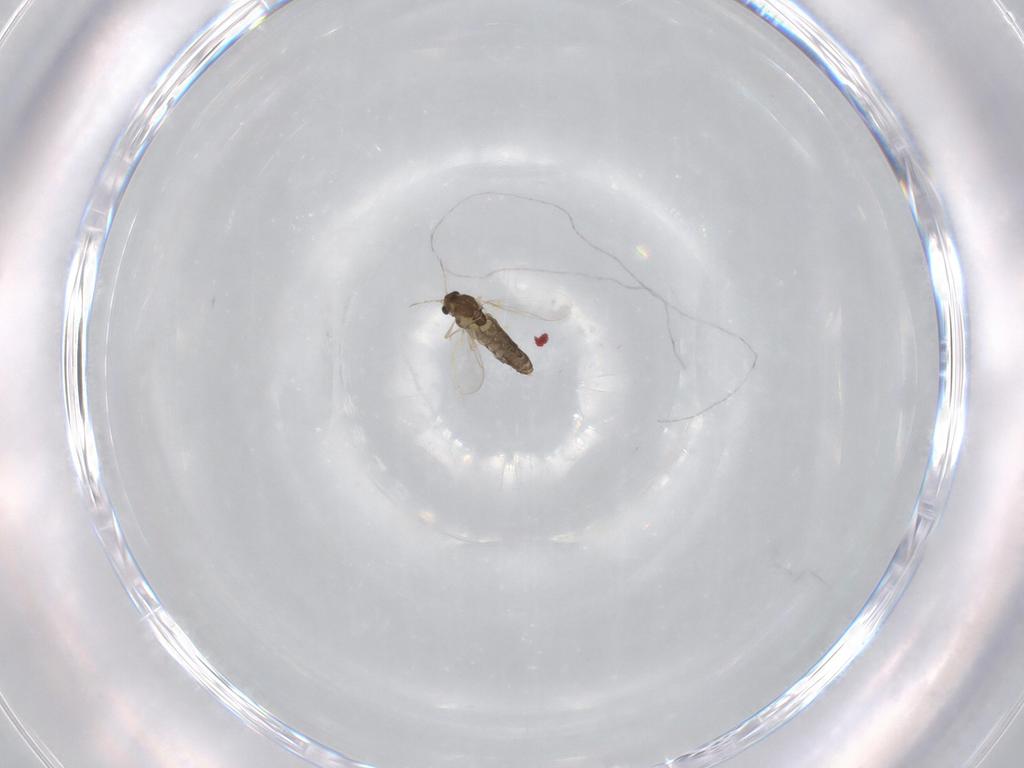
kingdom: Animalia
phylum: Arthropoda
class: Insecta
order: Diptera
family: Chironomidae
